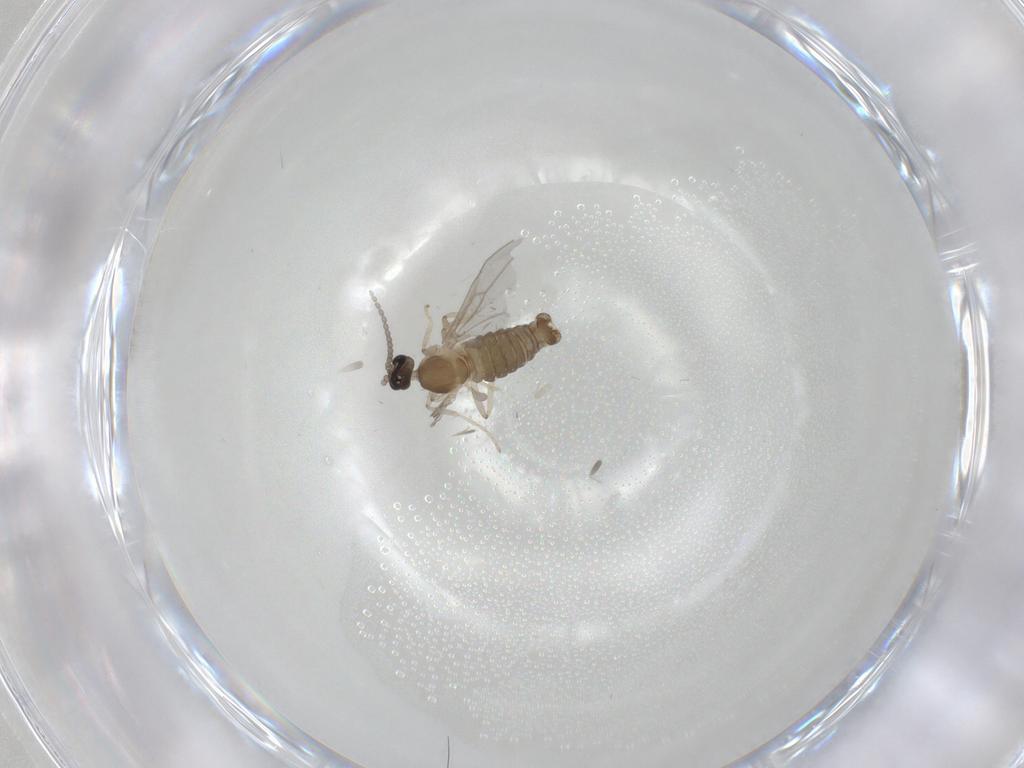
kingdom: Animalia
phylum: Arthropoda
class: Insecta
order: Diptera
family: Cecidomyiidae
